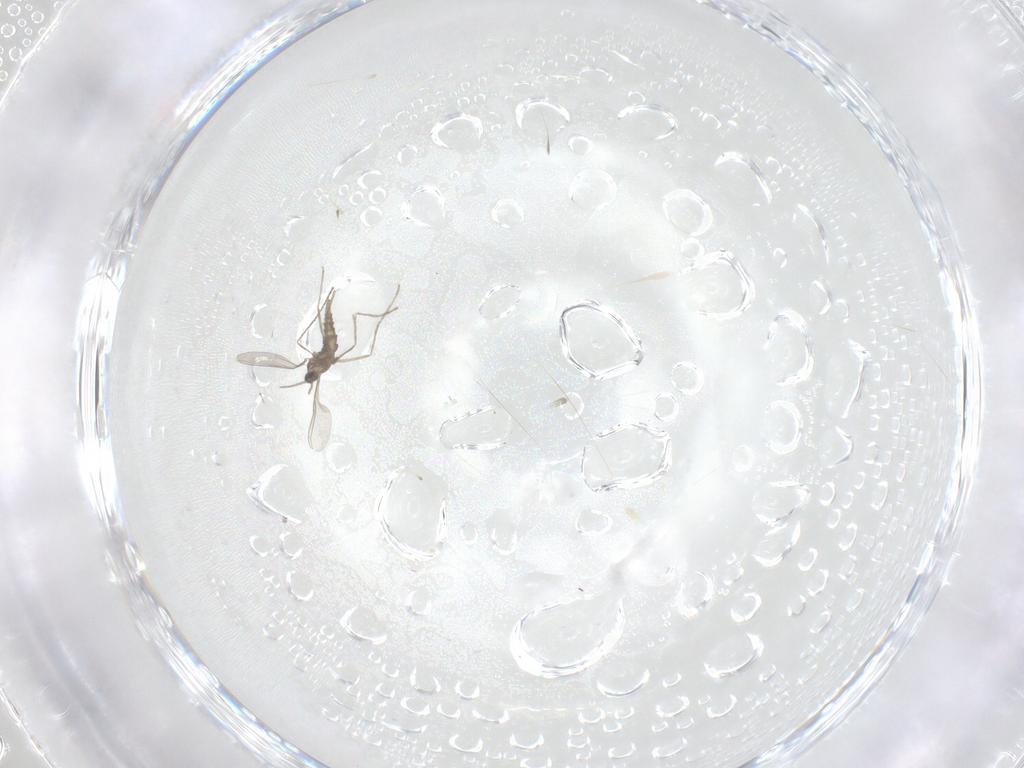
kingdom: Animalia
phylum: Arthropoda
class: Insecta
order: Diptera
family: Cecidomyiidae
